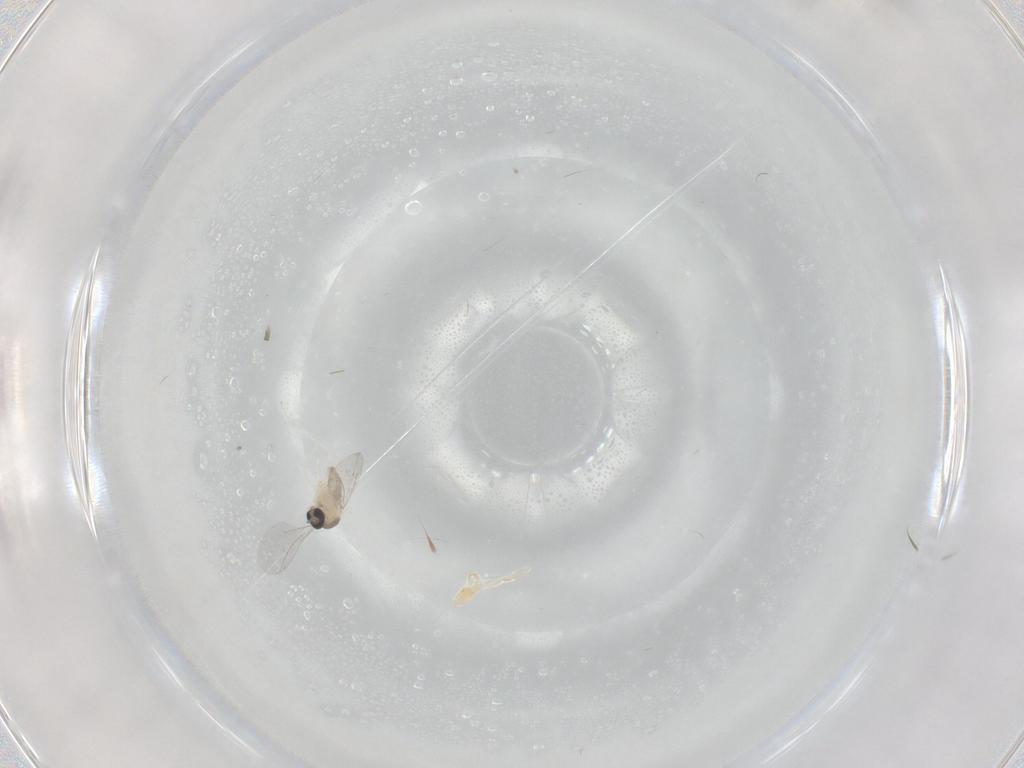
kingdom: Animalia
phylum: Arthropoda
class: Insecta
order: Diptera
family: Cecidomyiidae
